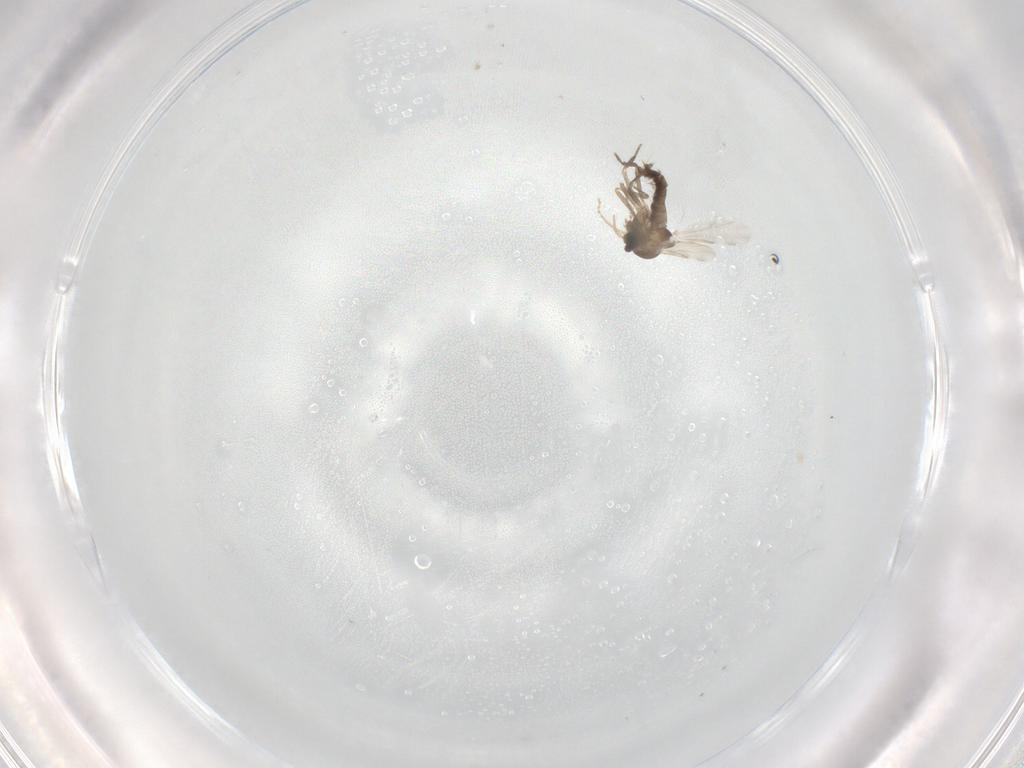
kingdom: Animalia
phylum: Arthropoda
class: Insecta
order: Diptera
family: Ceratopogonidae
